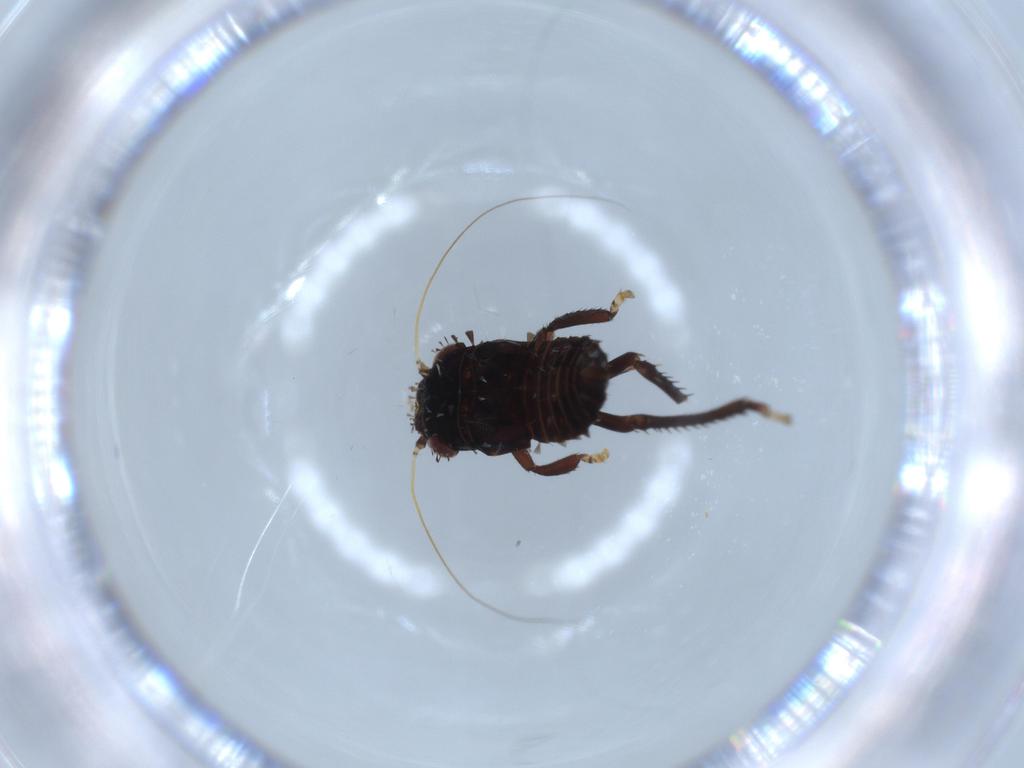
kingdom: Animalia
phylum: Arthropoda
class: Insecta
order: Hemiptera
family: Cicadellidae
